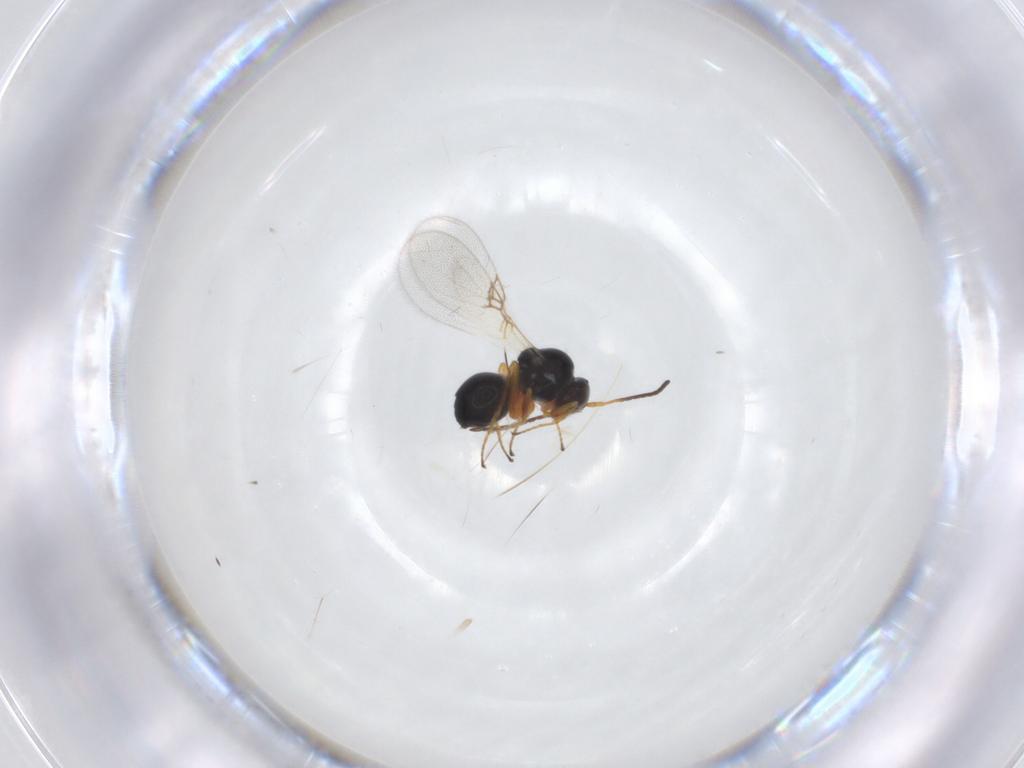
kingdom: Animalia
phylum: Arthropoda
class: Insecta
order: Hymenoptera
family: Figitidae
